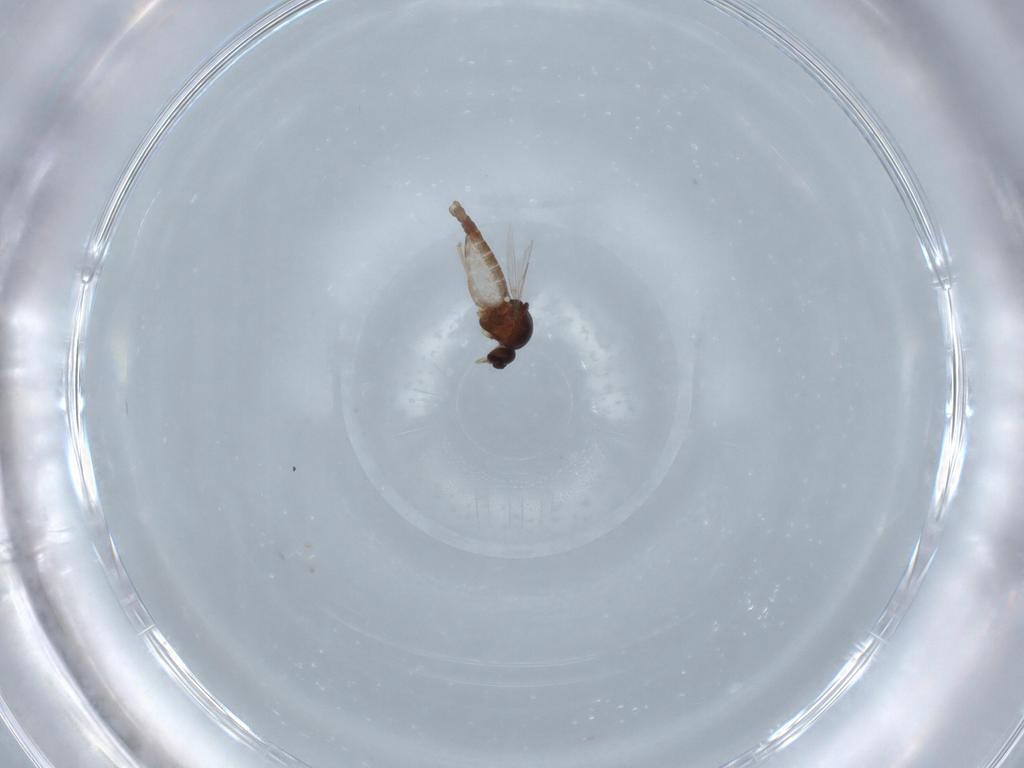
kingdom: Animalia
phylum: Arthropoda
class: Insecta
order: Diptera
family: Ceratopogonidae
